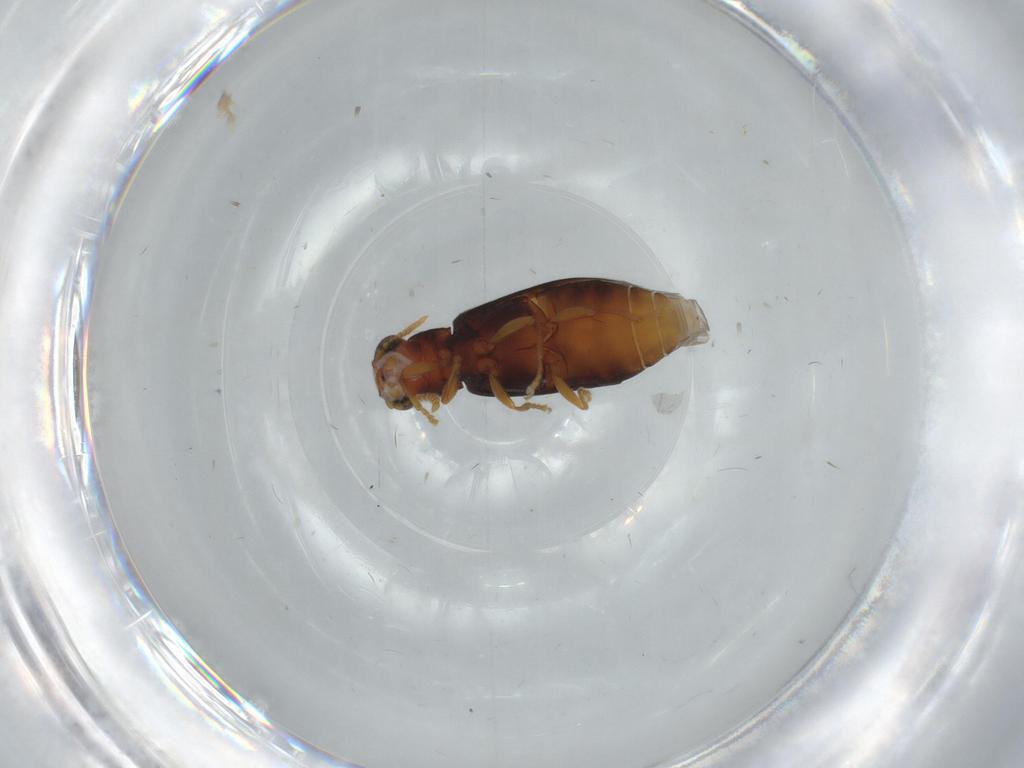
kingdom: Animalia
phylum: Arthropoda
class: Insecta
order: Coleoptera
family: Mycteridae
